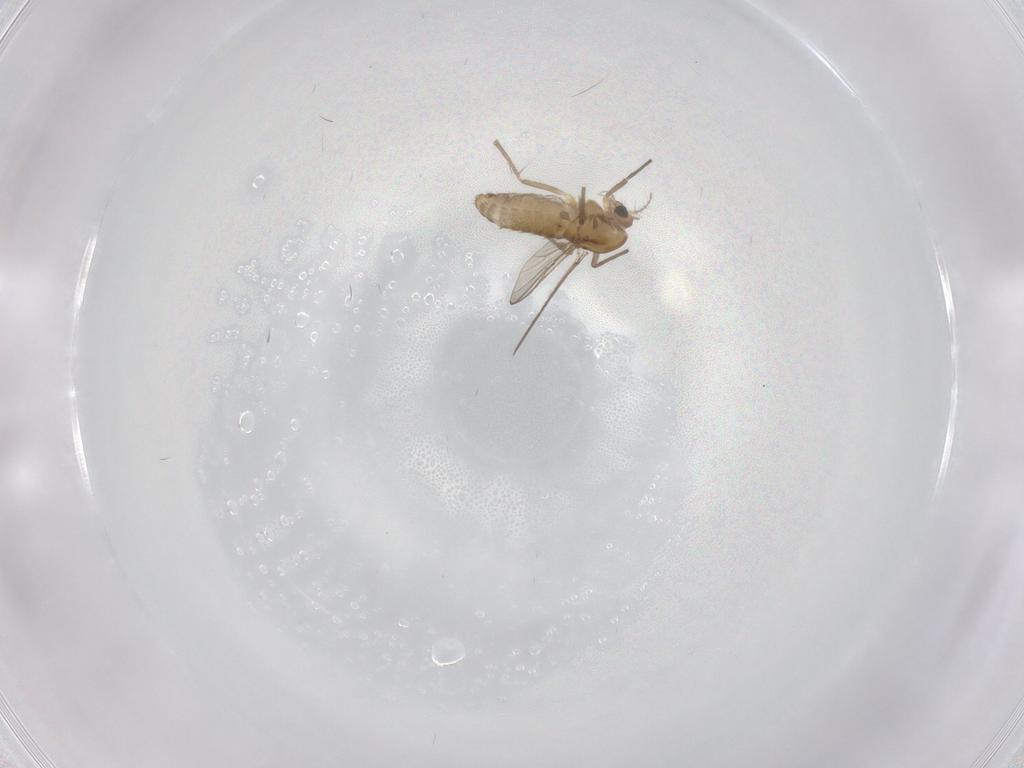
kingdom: Animalia
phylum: Arthropoda
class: Insecta
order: Diptera
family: Chironomidae
